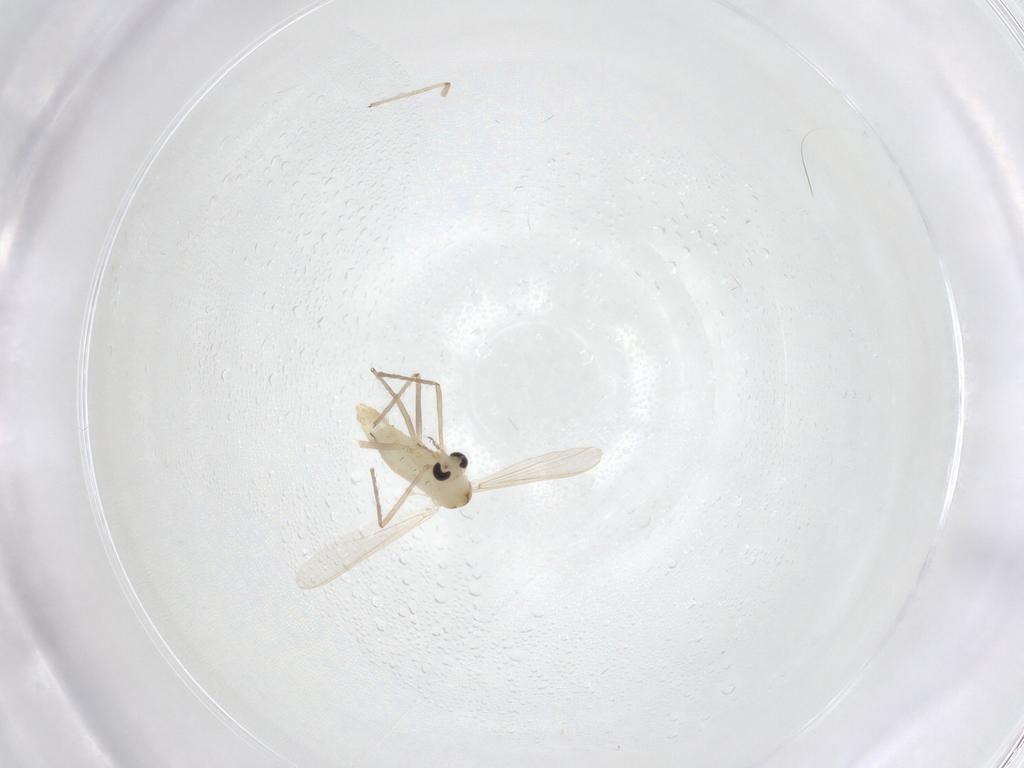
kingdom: Animalia
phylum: Arthropoda
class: Insecta
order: Diptera
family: Chironomidae
